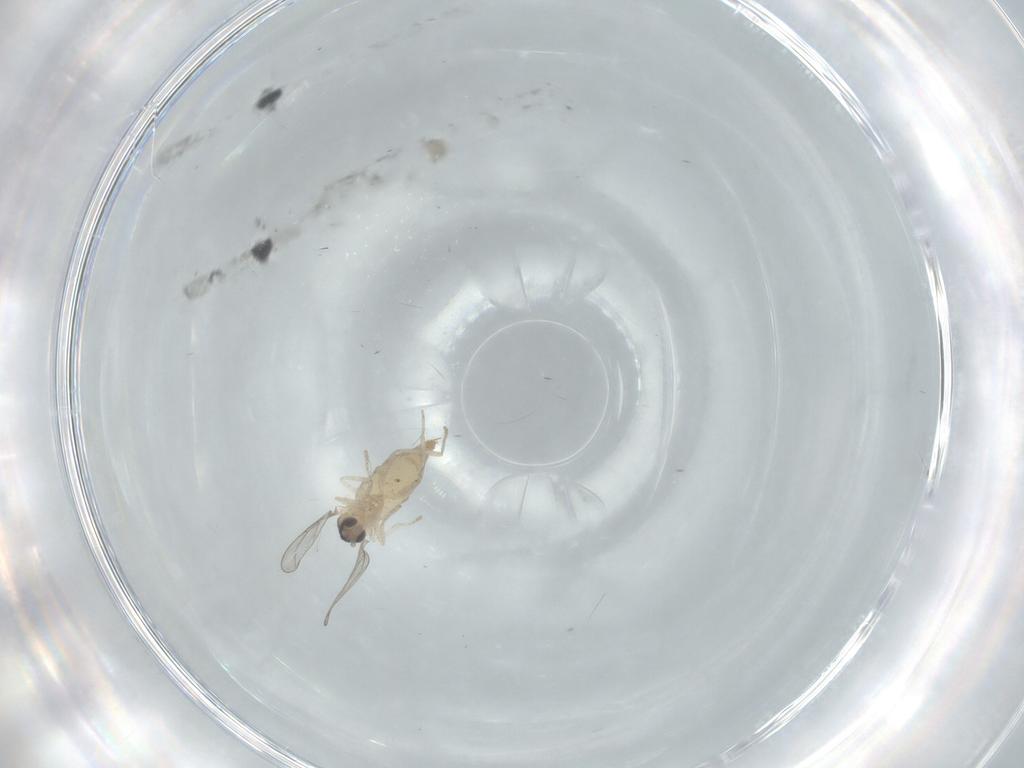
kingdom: Animalia
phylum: Arthropoda
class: Insecta
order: Diptera
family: Cecidomyiidae
